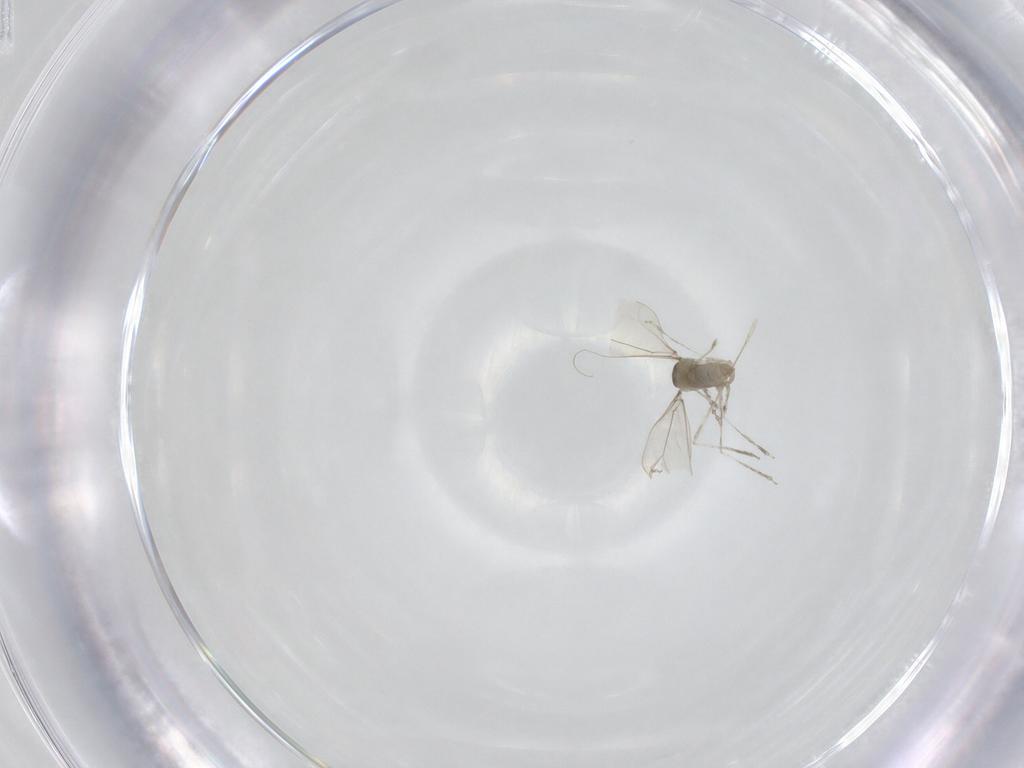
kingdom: Animalia
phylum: Arthropoda
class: Insecta
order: Diptera
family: Cecidomyiidae
